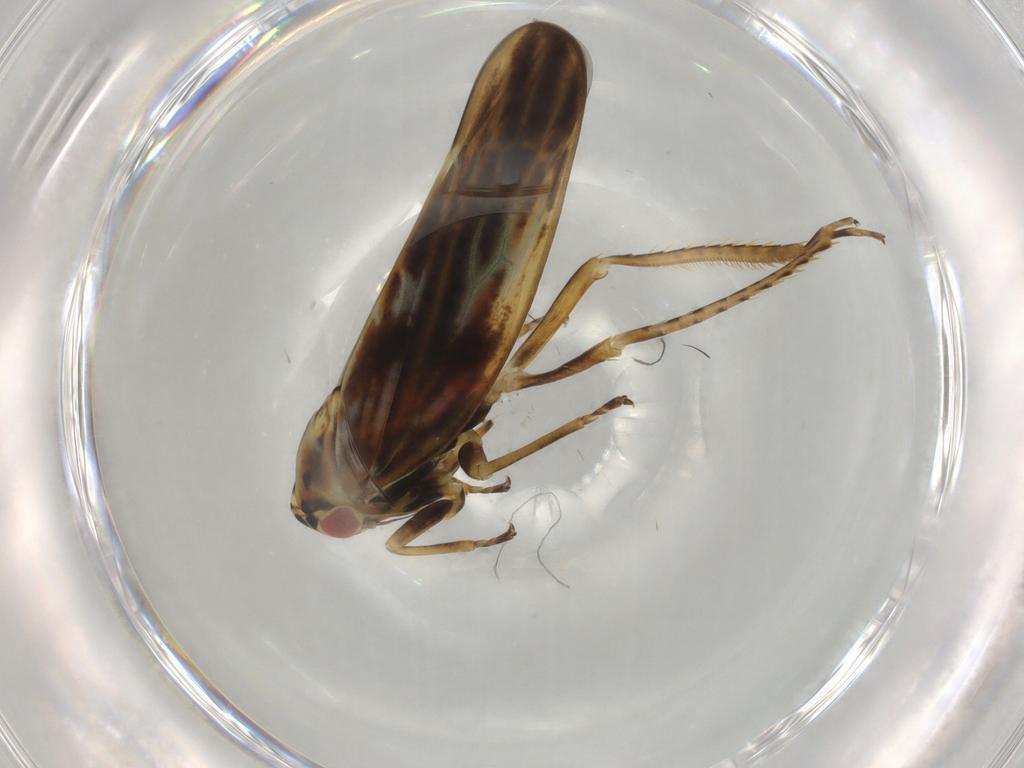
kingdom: Animalia
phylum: Arthropoda
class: Insecta
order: Hemiptera
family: Cicadellidae
